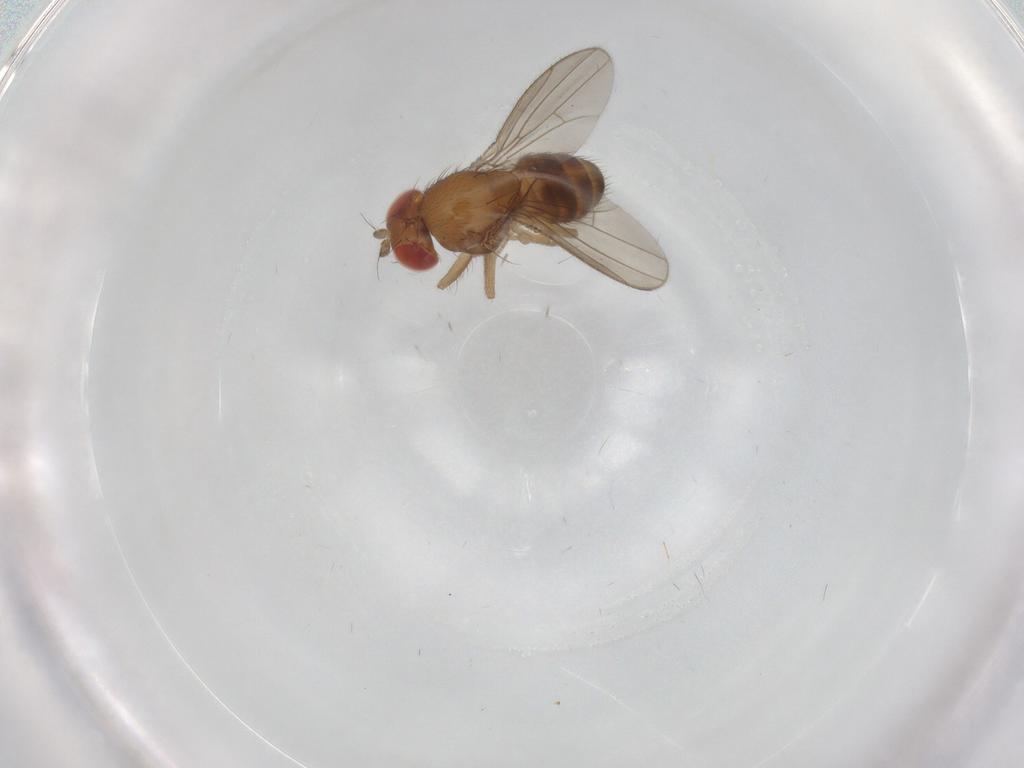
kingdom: Animalia
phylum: Arthropoda
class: Insecta
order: Diptera
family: Drosophilidae
